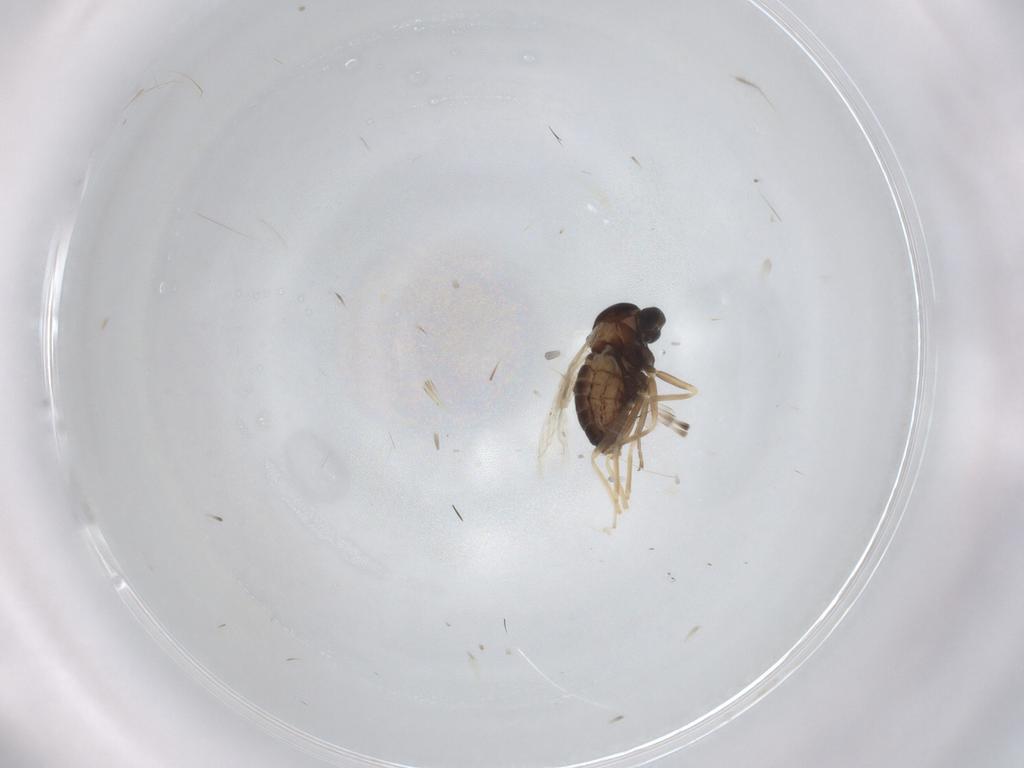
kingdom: Animalia
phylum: Arthropoda
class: Insecta
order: Diptera
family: Cecidomyiidae
